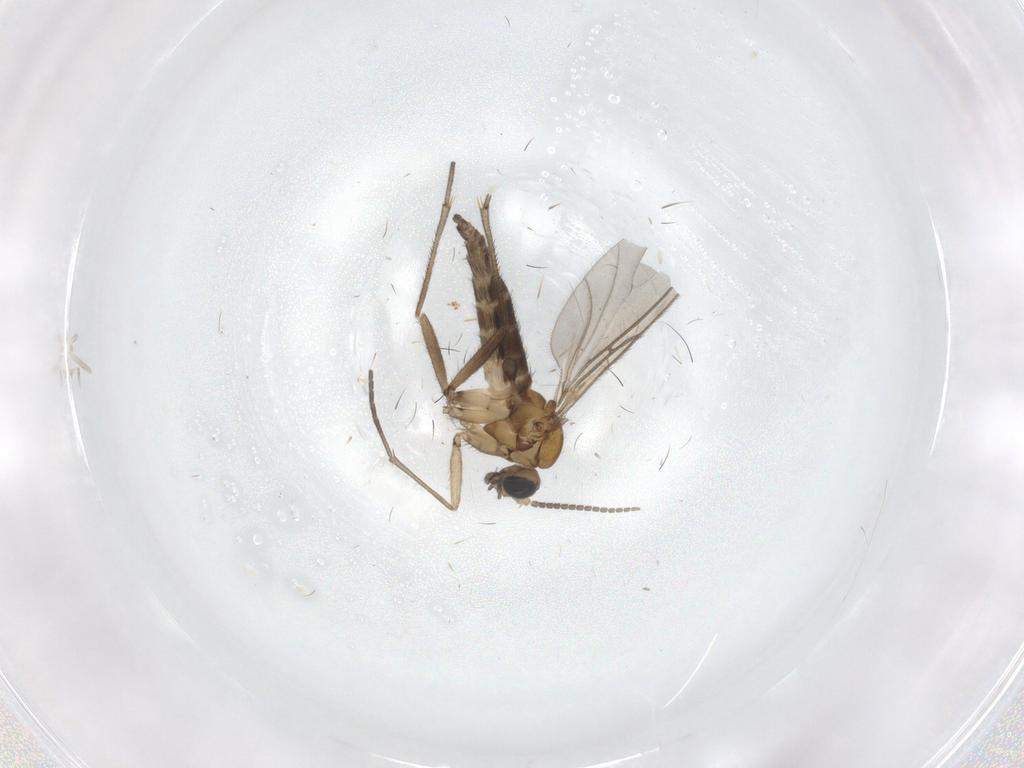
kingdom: Animalia
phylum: Arthropoda
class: Insecta
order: Diptera
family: Sciaridae
